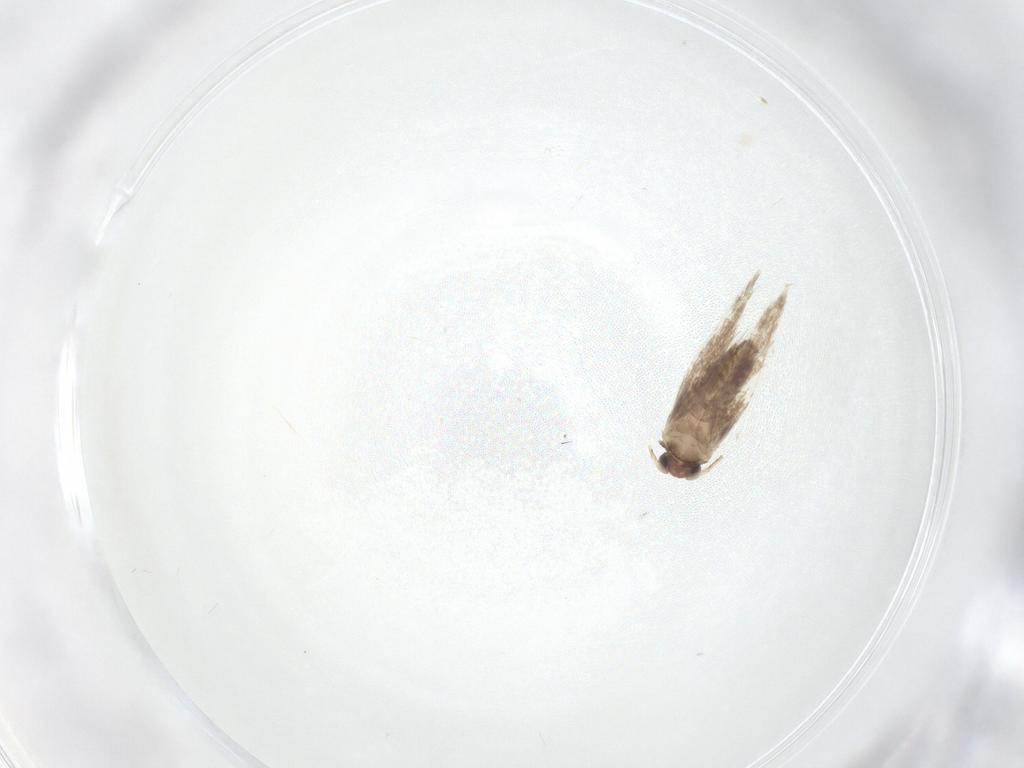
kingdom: Animalia
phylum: Arthropoda
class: Insecta
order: Lepidoptera
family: Nepticulidae
